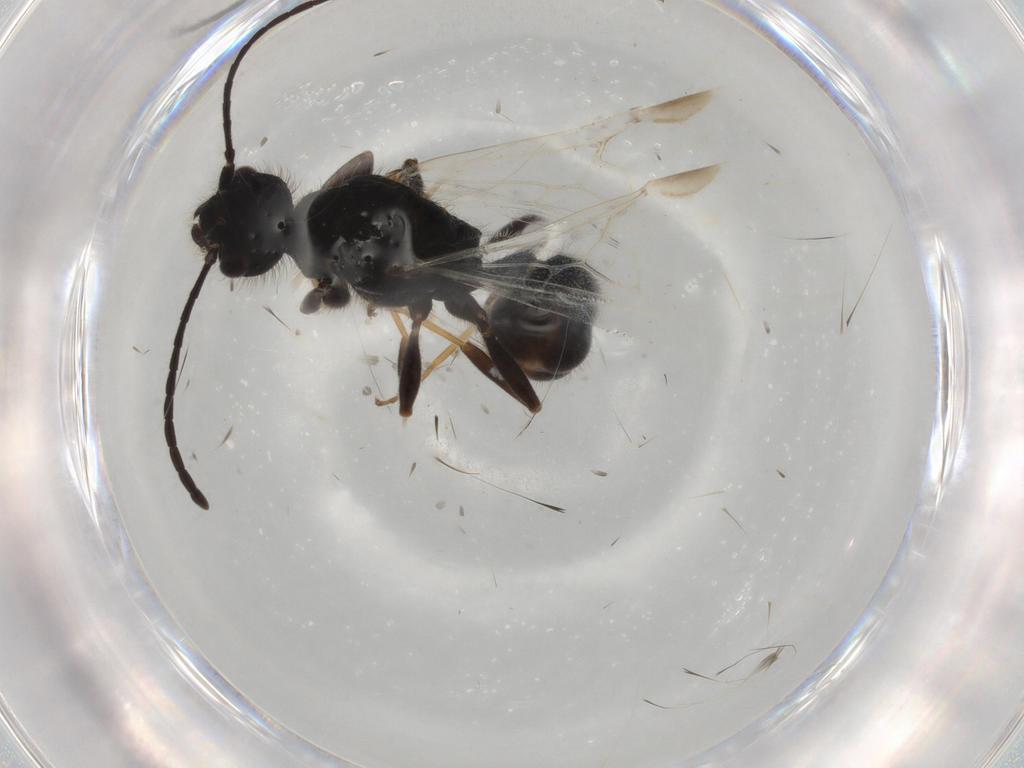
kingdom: Animalia
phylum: Arthropoda
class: Insecta
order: Hymenoptera
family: Formicidae
